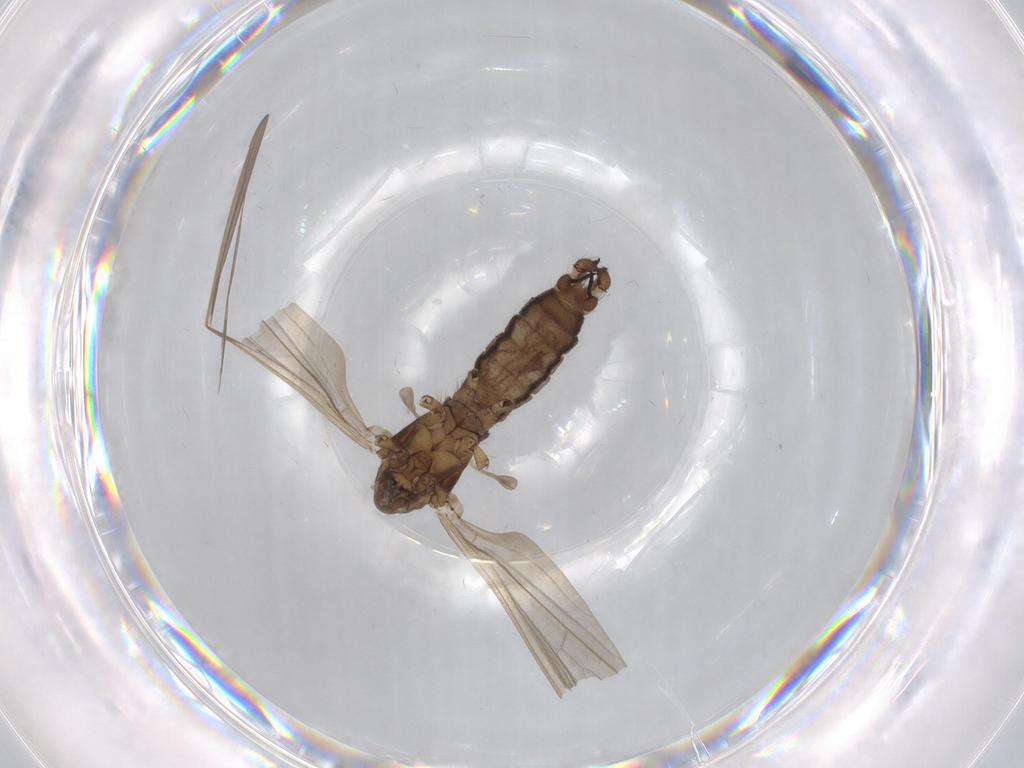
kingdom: Animalia
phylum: Arthropoda
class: Insecta
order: Diptera
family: Limoniidae
